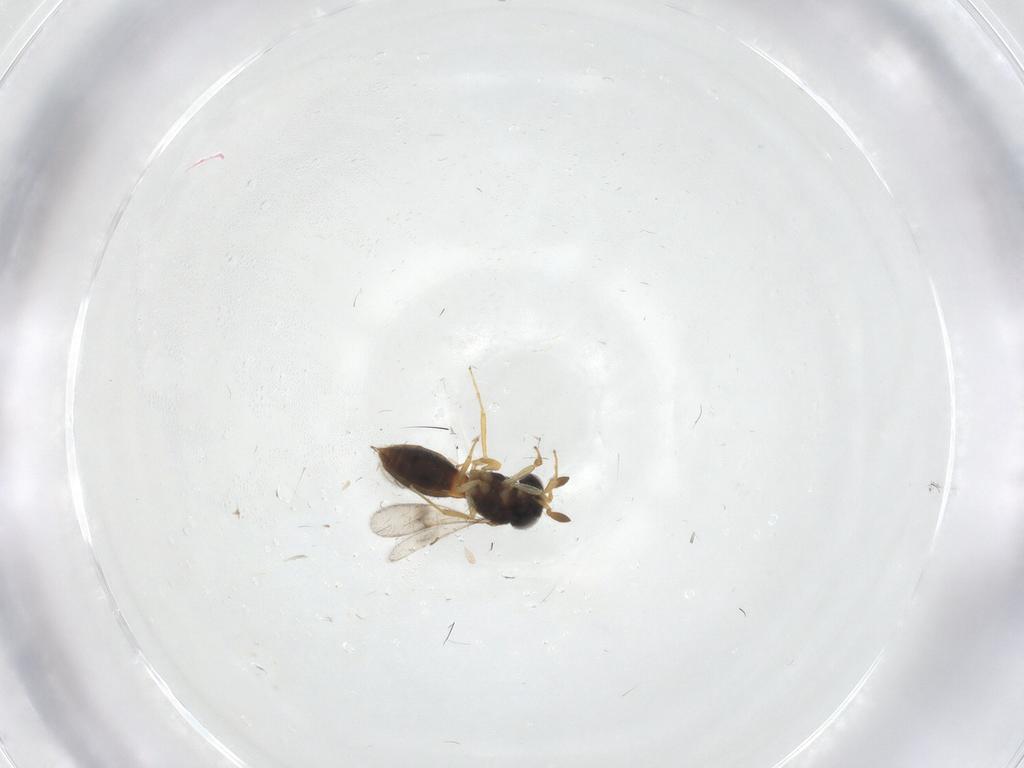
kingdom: Animalia
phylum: Arthropoda
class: Insecta
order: Hymenoptera
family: Scelionidae
